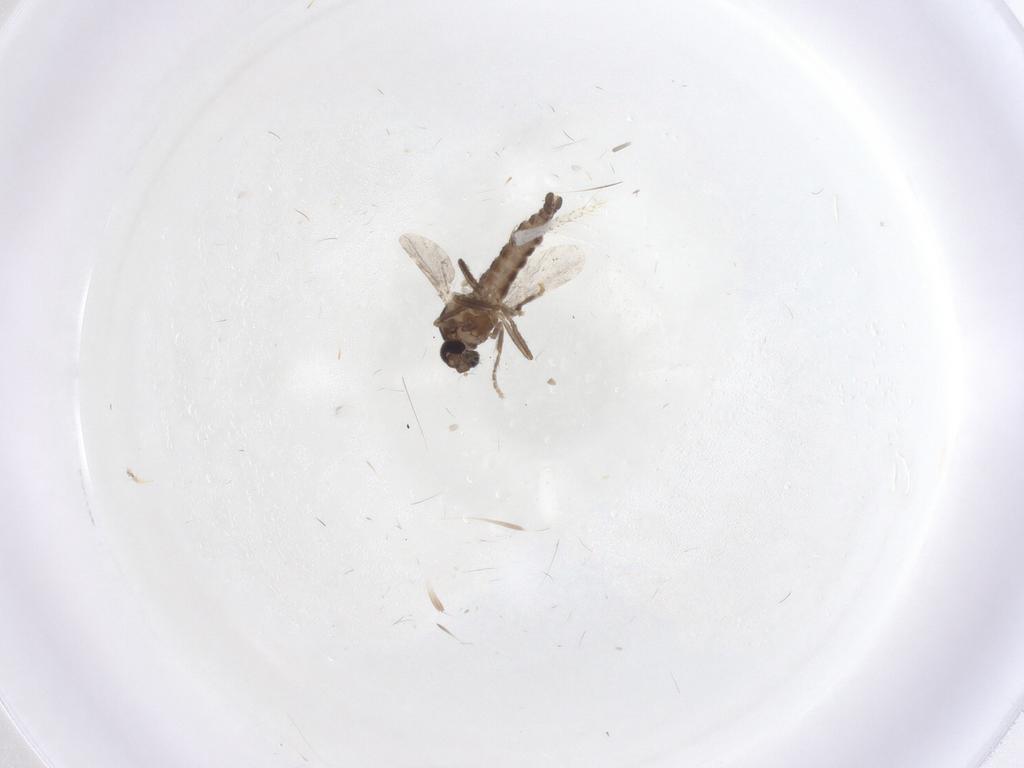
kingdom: Animalia
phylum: Arthropoda
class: Insecta
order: Diptera
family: Ceratopogonidae
